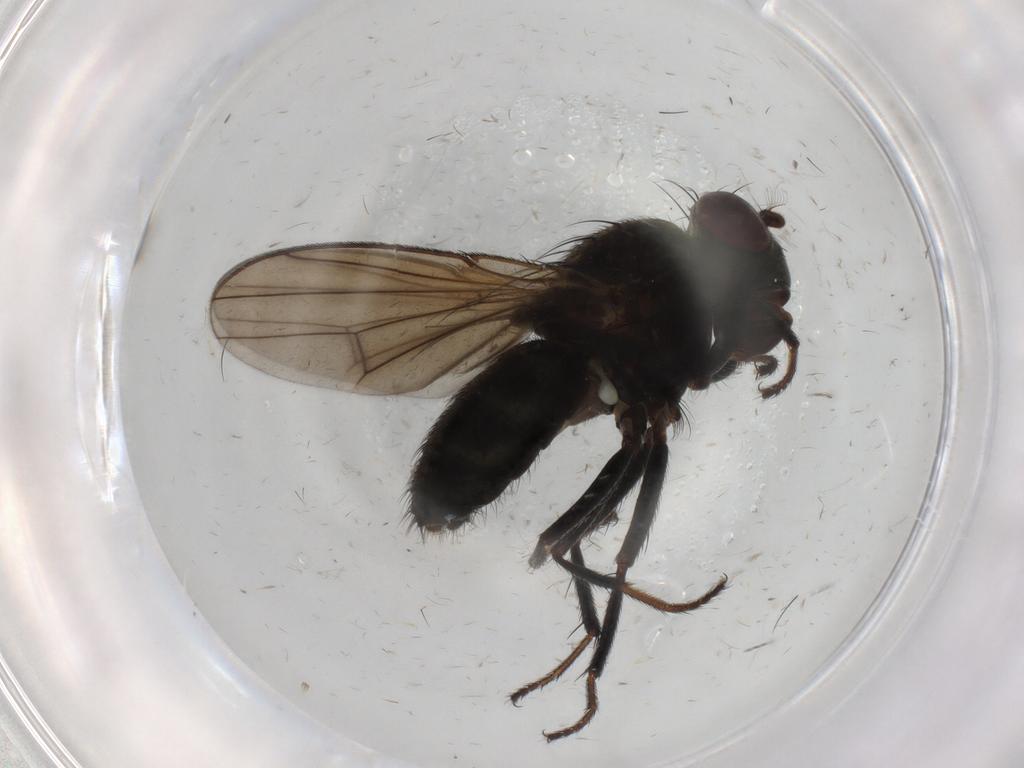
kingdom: Animalia
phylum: Arthropoda
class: Insecta
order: Diptera
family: Ephydridae
